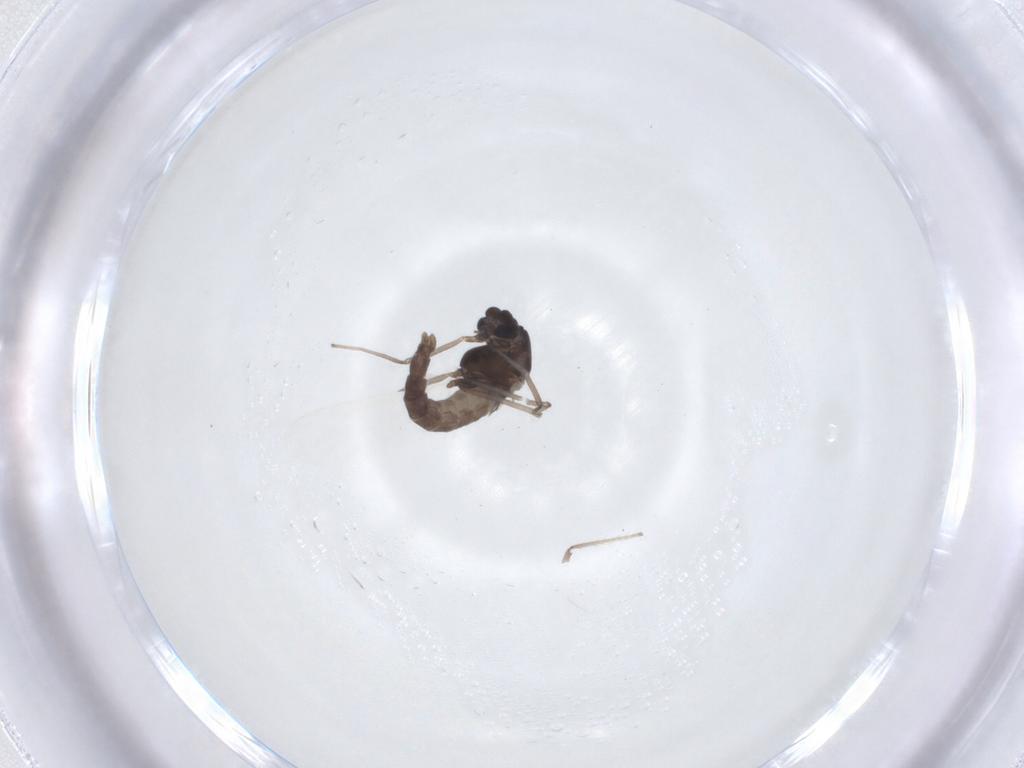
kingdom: Animalia
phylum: Arthropoda
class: Insecta
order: Diptera
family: Chironomidae
